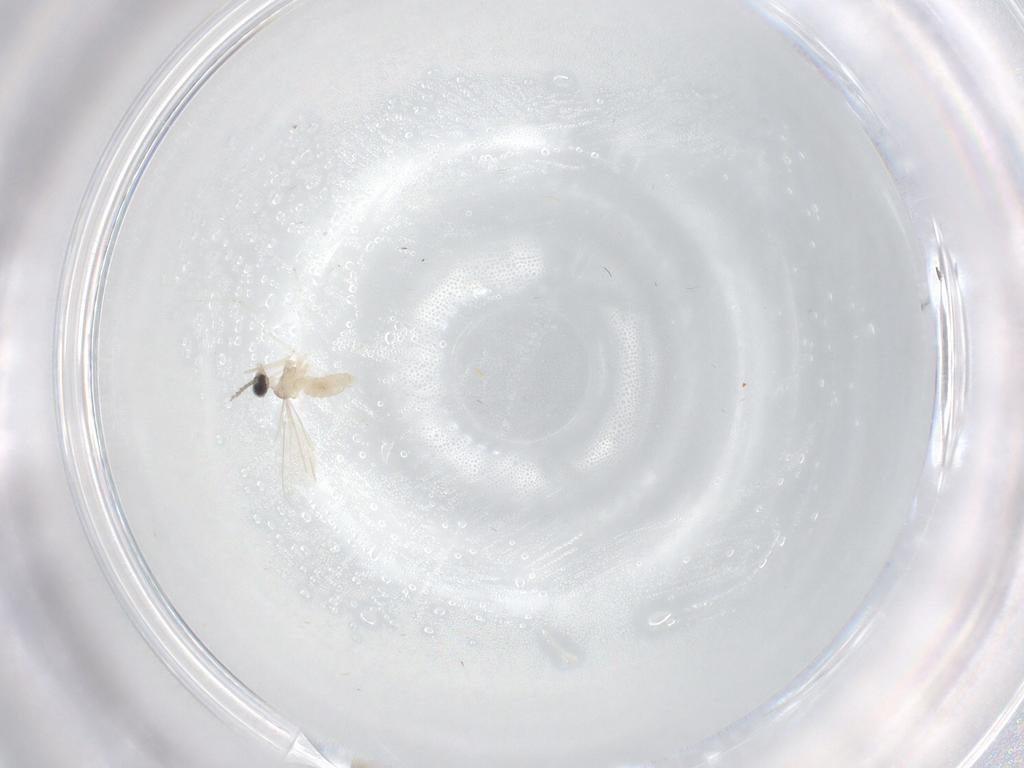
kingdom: Animalia
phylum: Arthropoda
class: Insecta
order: Diptera
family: Cecidomyiidae
